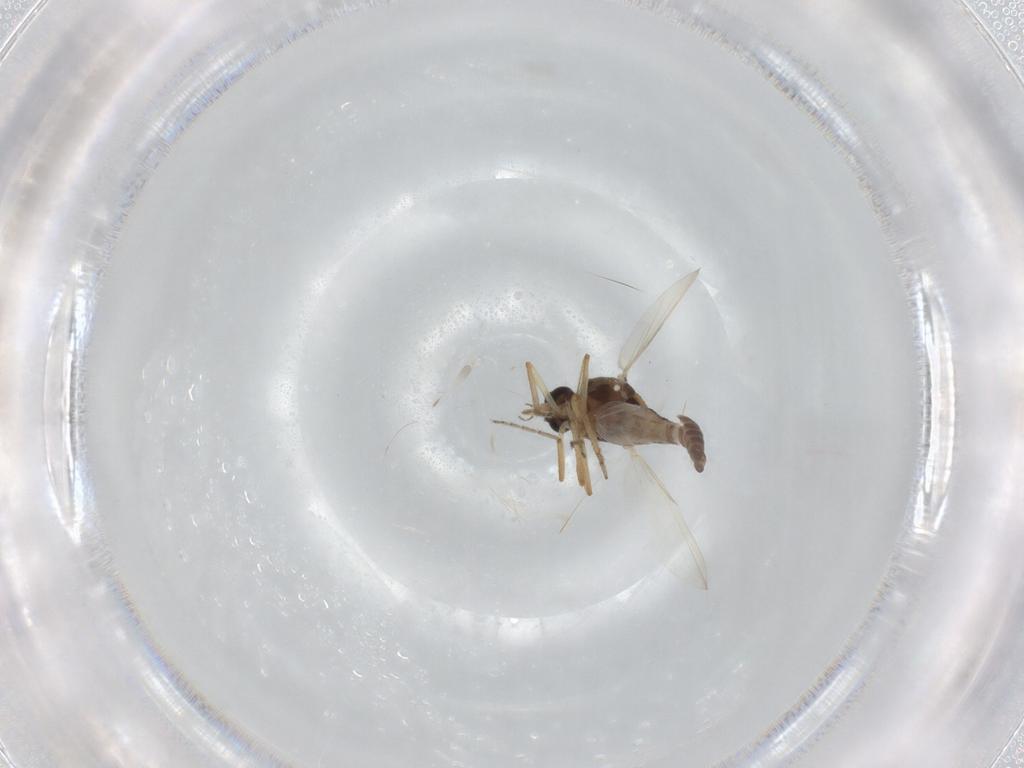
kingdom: Animalia
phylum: Arthropoda
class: Insecta
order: Diptera
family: Ceratopogonidae
